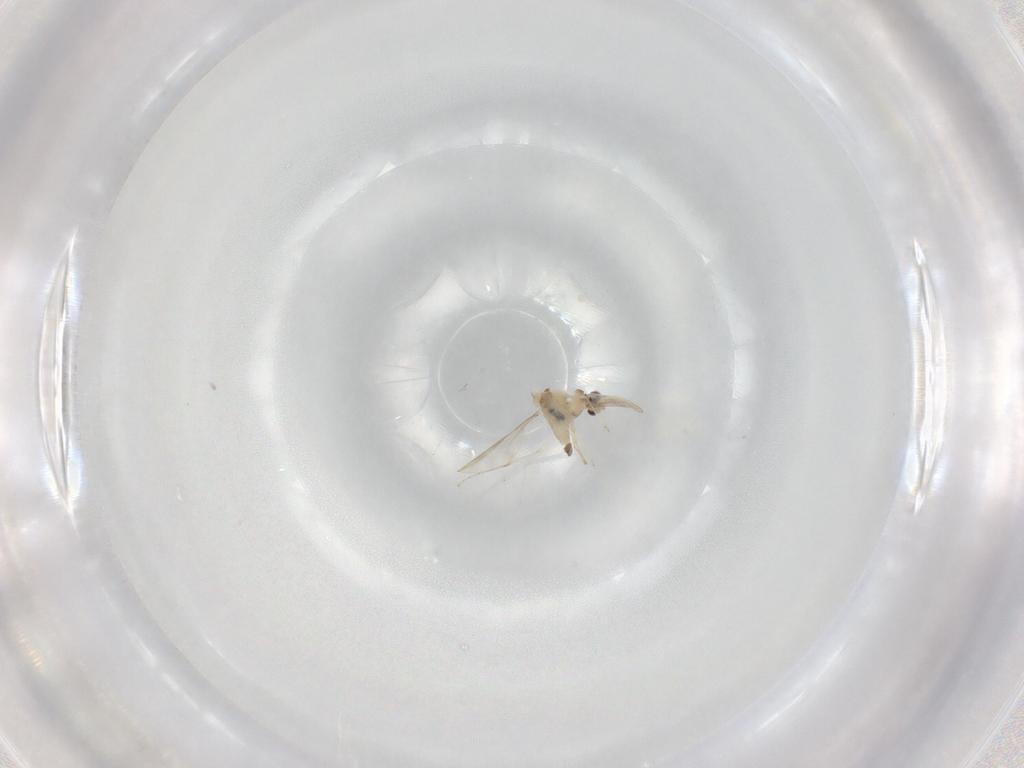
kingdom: Animalia
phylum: Arthropoda
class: Insecta
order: Diptera
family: Cecidomyiidae
